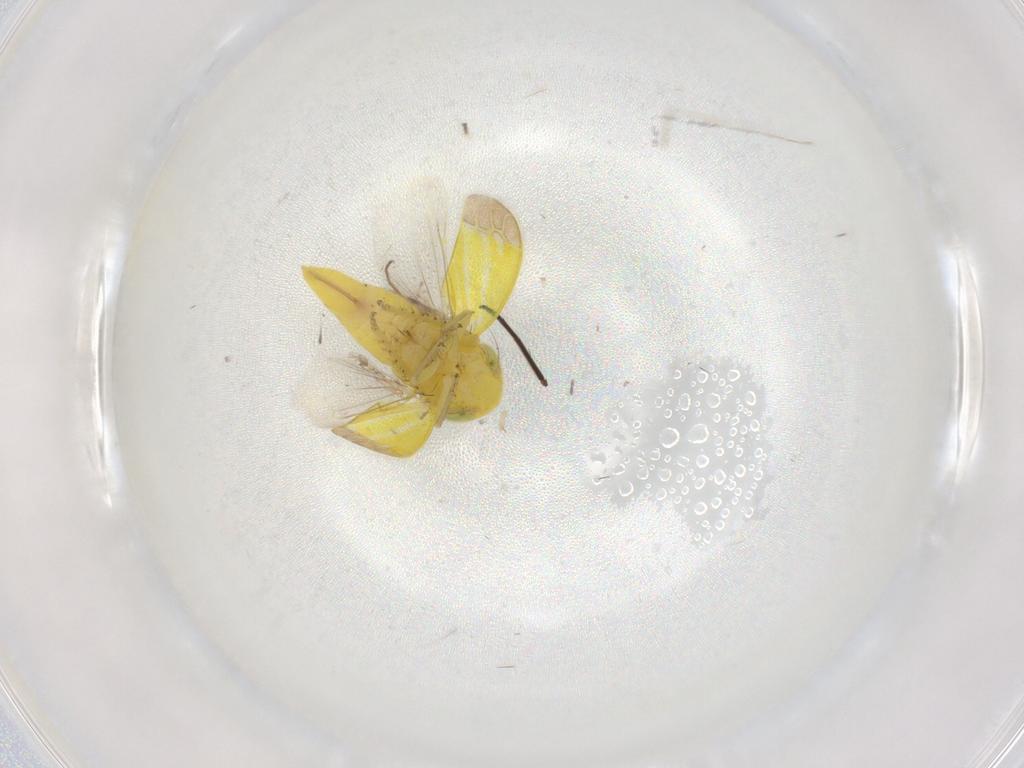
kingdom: Animalia
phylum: Arthropoda
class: Insecta
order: Hemiptera
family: Cicadellidae
